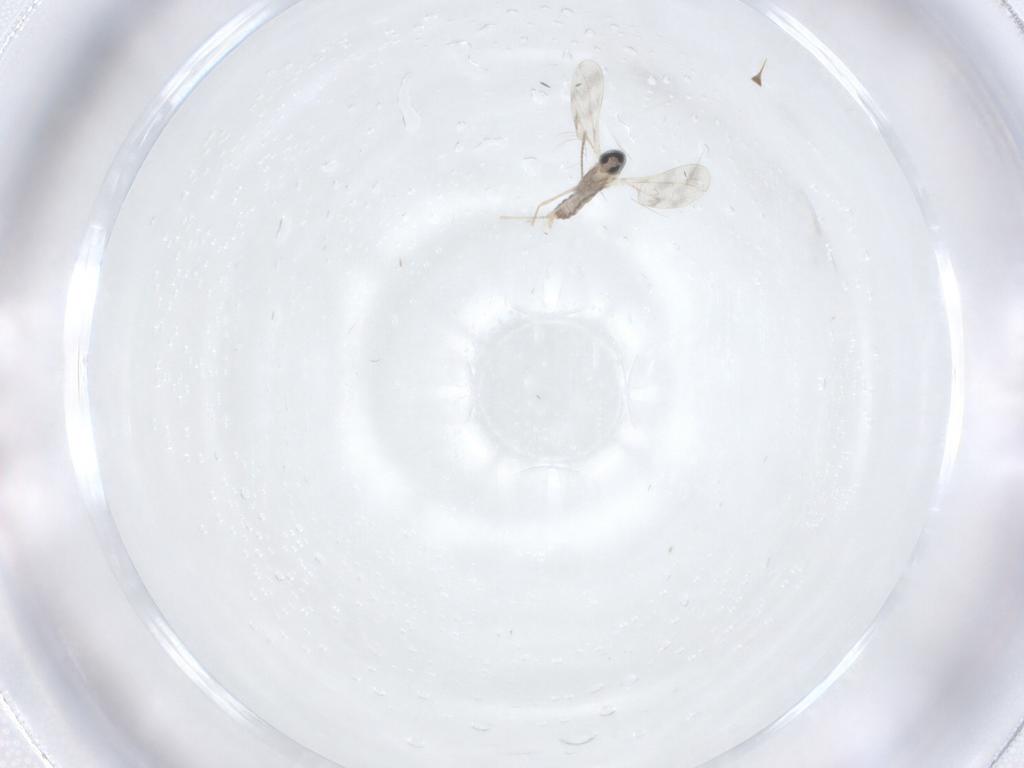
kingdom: Animalia
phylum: Arthropoda
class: Insecta
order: Diptera
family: Chironomidae
